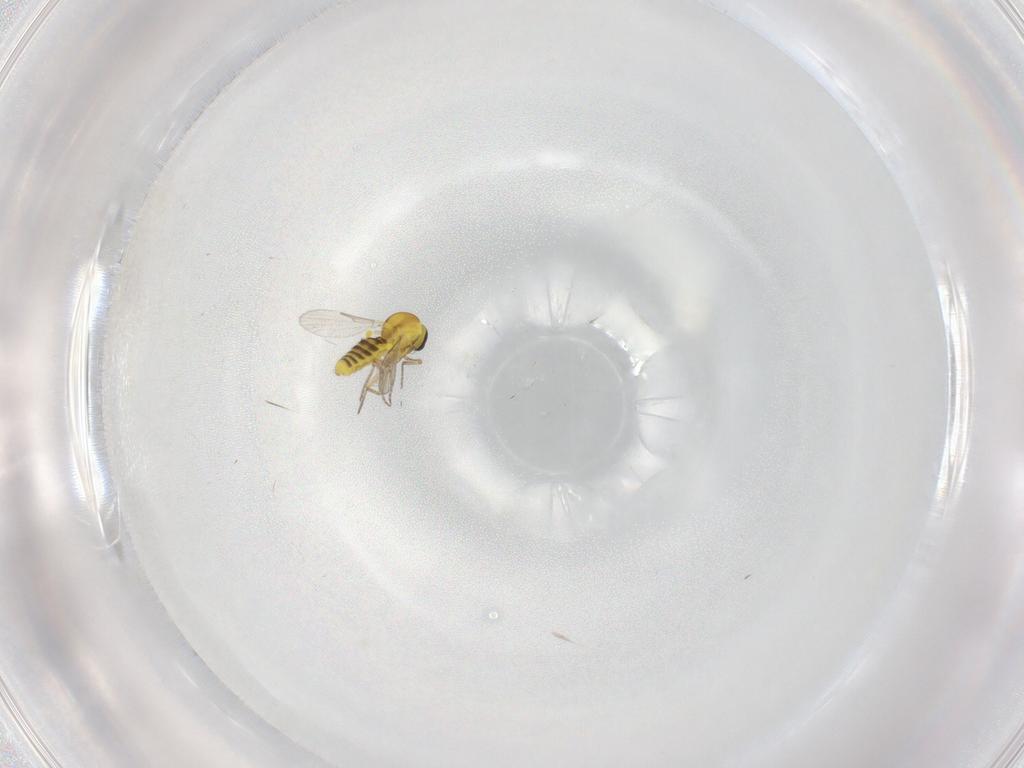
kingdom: Animalia
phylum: Arthropoda
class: Insecta
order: Diptera
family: Ceratopogonidae
